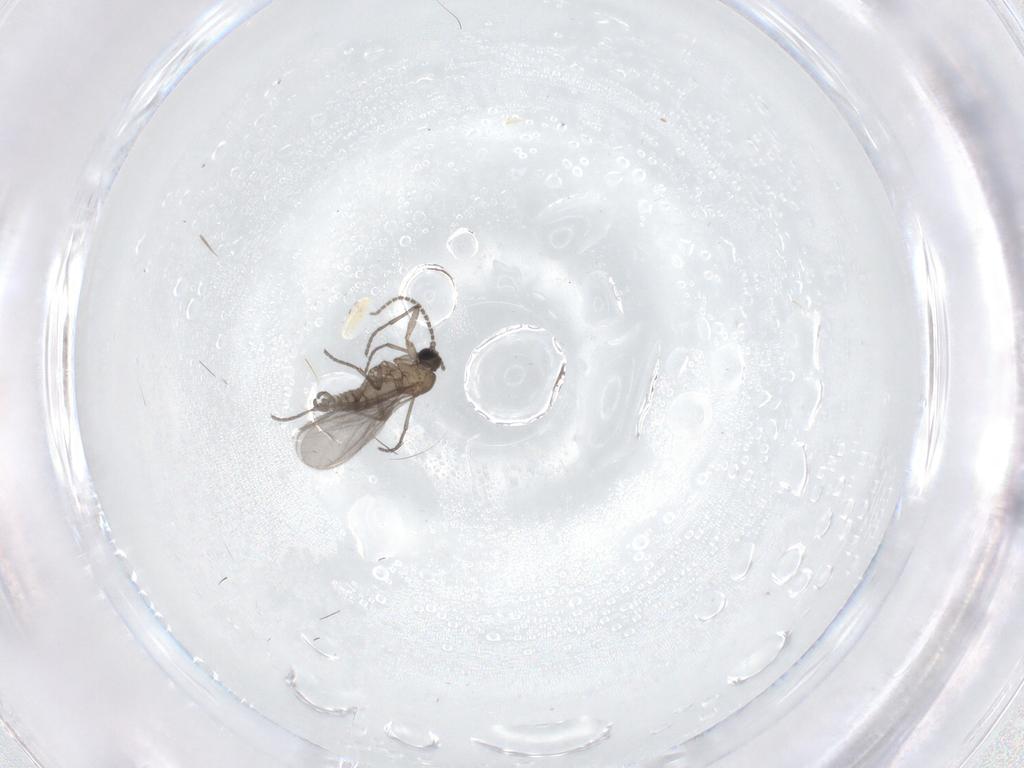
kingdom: Animalia
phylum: Arthropoda
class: Insecta
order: Diptera
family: Sciaridae
